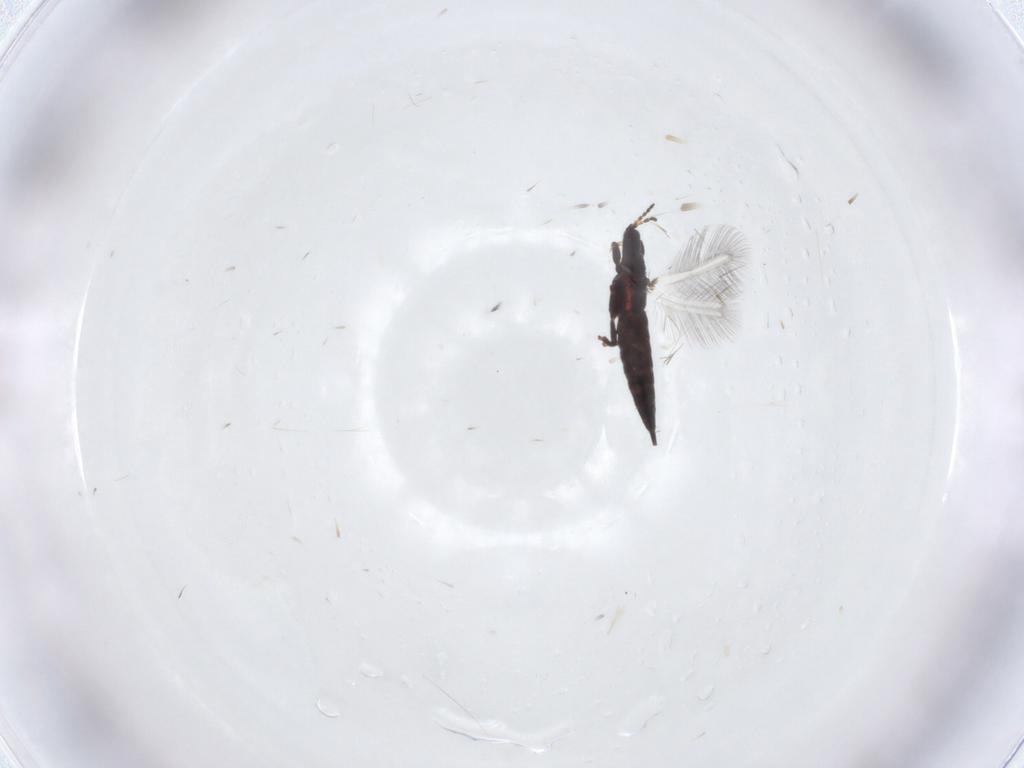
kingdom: Animalia
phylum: Arthropoda
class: Insecta
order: Thysanoptera
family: Phlaeothripidae
